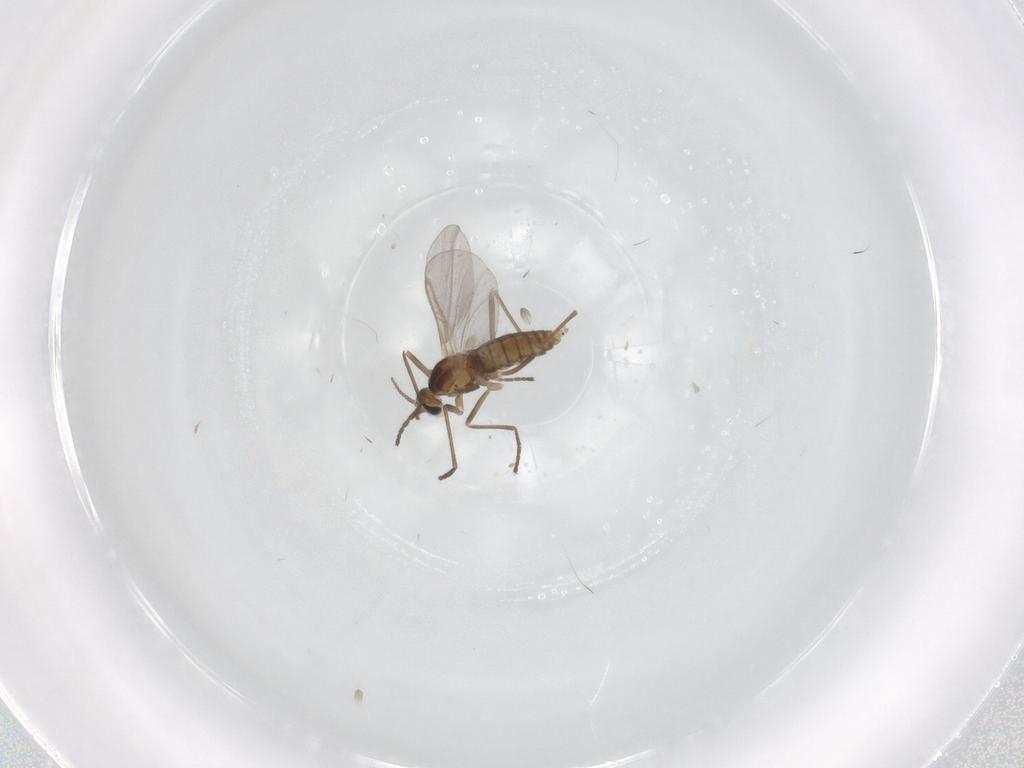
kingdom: Animalia
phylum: Arthropoda
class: Insecta
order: Diptera
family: Cecidomyiidae
